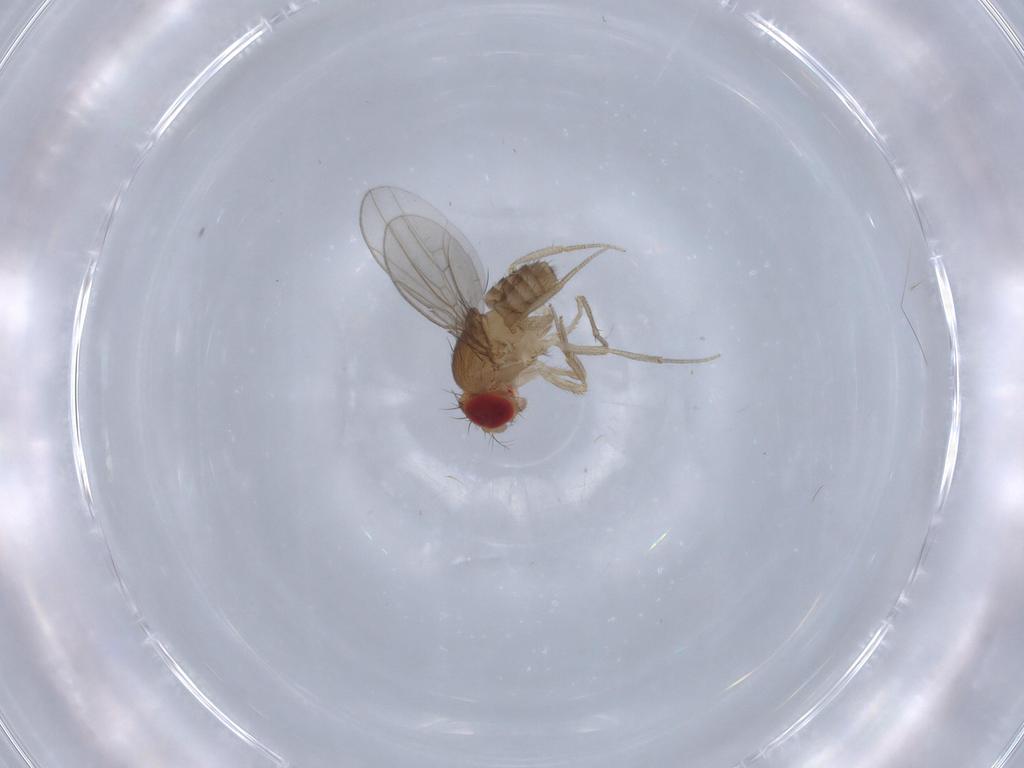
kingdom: Animalia
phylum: Arthropoda
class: Insecta
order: Diptera
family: Drosophilidae
